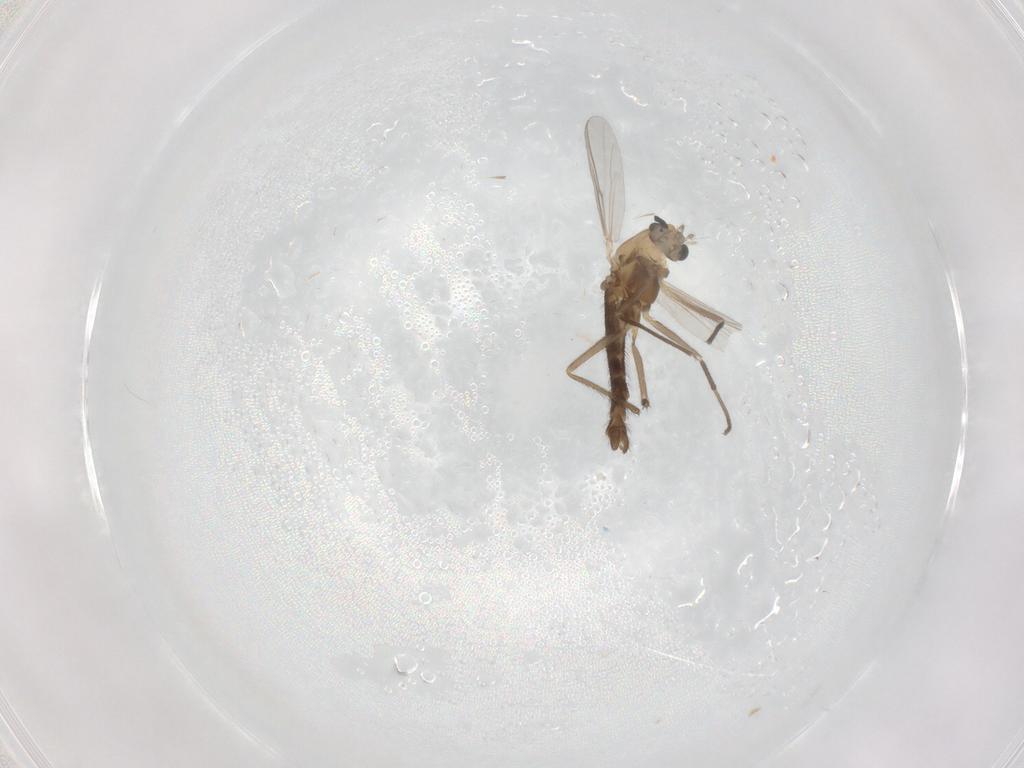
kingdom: Animalia
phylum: Arthropoda
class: Insecta
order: Diptera
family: Chironomidae
